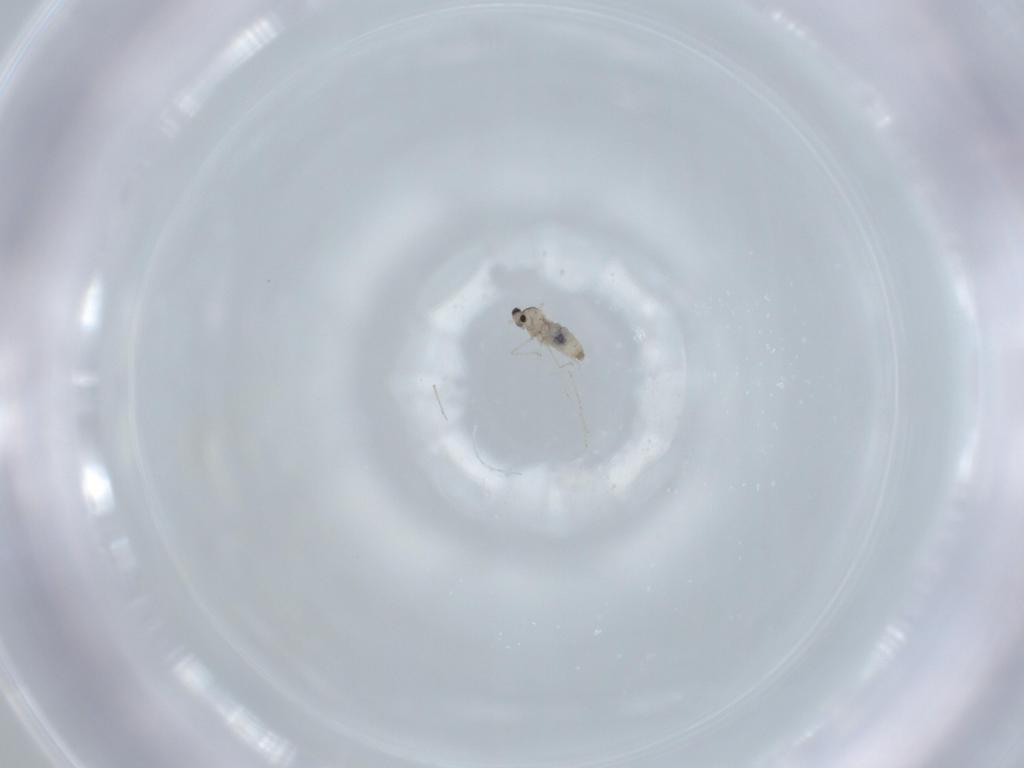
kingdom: Animalia
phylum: Arthropoda
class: Insecta
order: Diptera
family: Cecidomyiidae
